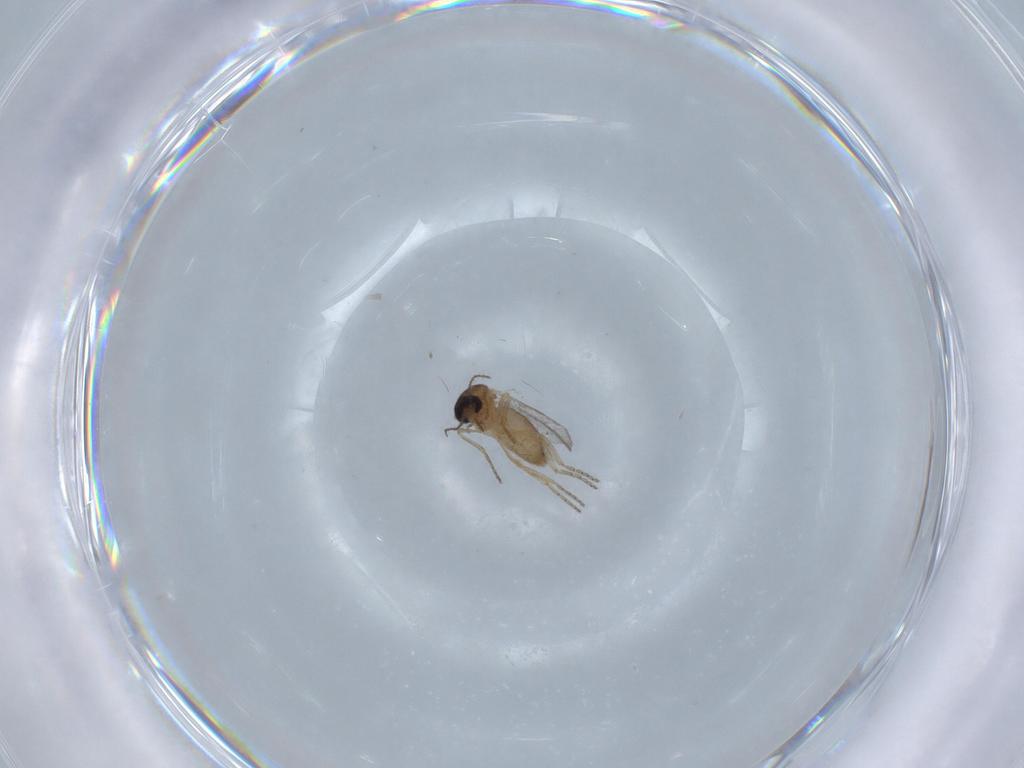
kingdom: Animalia
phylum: Arthropoda
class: Insecta
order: Diptera
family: Ceratopogonidae
